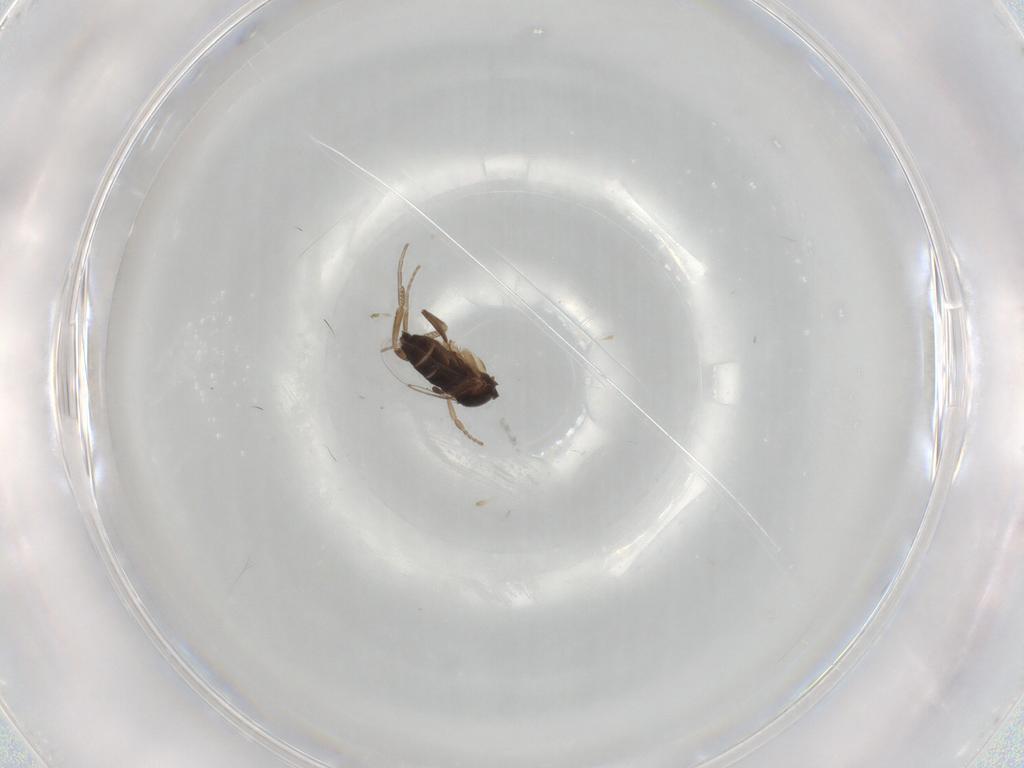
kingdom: Animalia
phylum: Arthropoda
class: Insecta
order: Diptera
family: Phoridae
